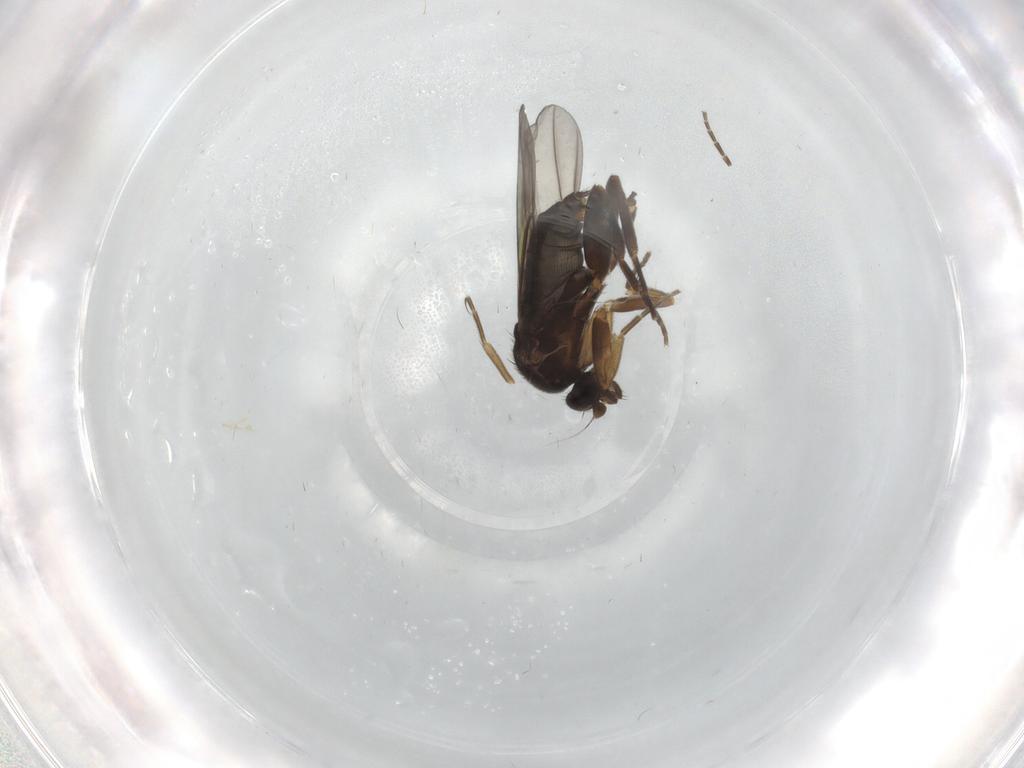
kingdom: Animalia
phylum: Arthropoda
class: Insecta
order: Diptera
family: Phoridae
